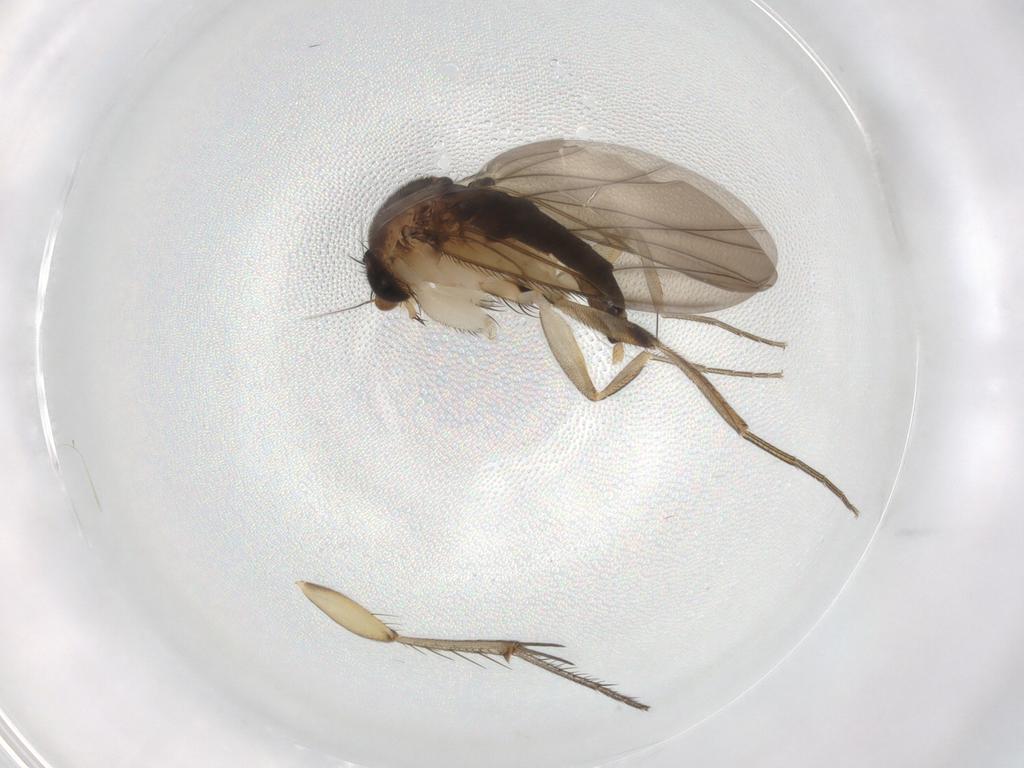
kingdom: Animalia
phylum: Arthropoda
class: Insecta
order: Diptera
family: Phoridae
